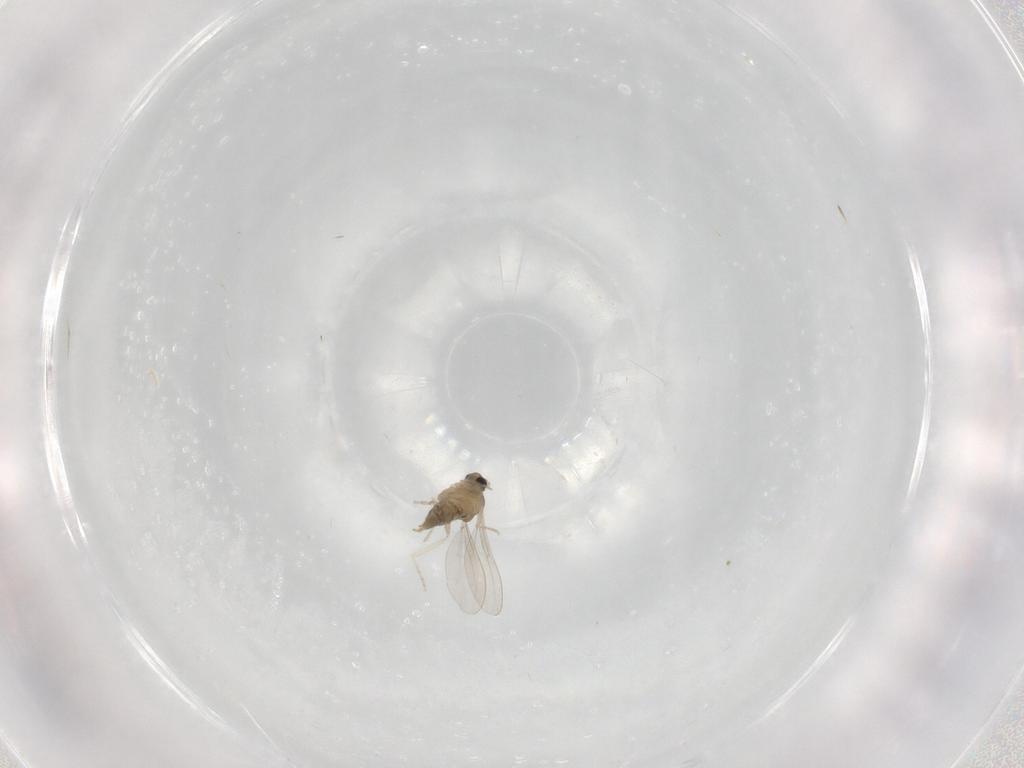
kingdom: Animalia
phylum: Arthropoda
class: Insecta
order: Diptera
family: Cecidomyiidae
